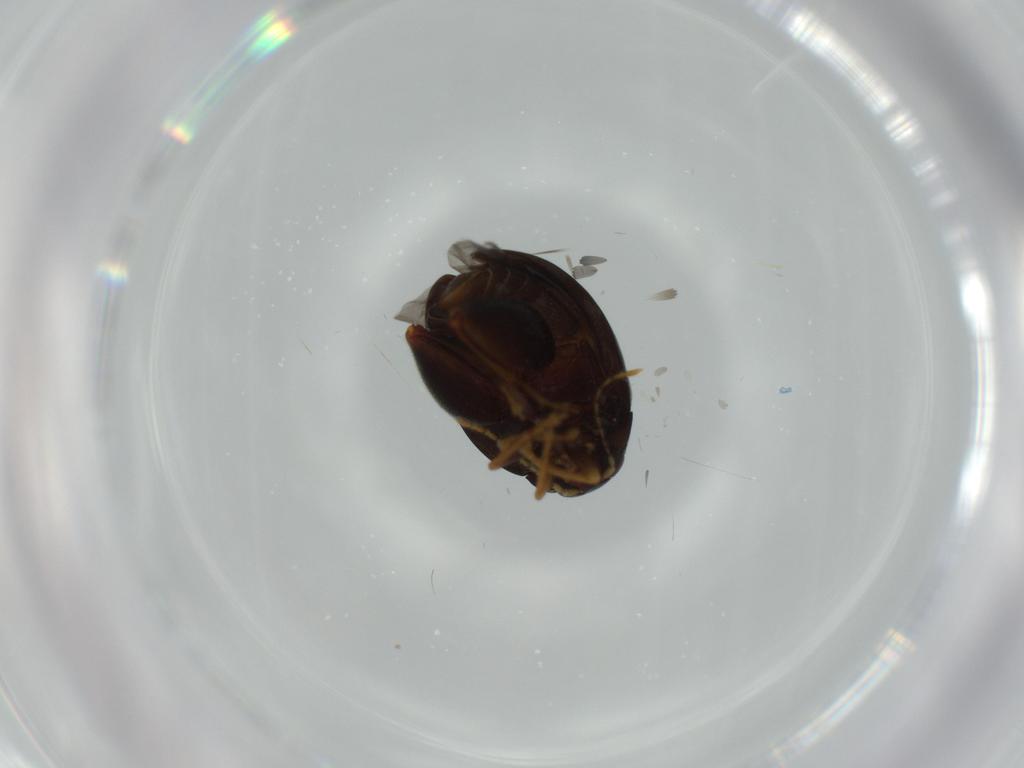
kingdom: Animalia
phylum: Arthropoda
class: Insecta
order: Coleoptera
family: Chrysomelidae
